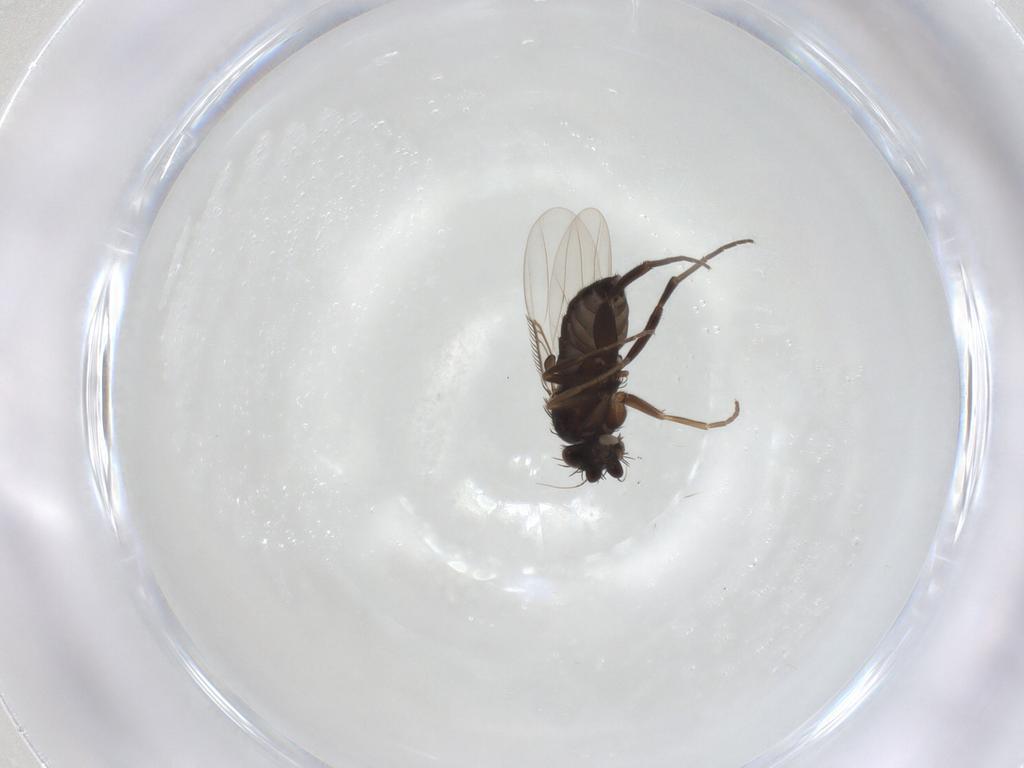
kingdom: Animalia
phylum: Arthropoda
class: Insecta
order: Diptera
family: Phoridae
